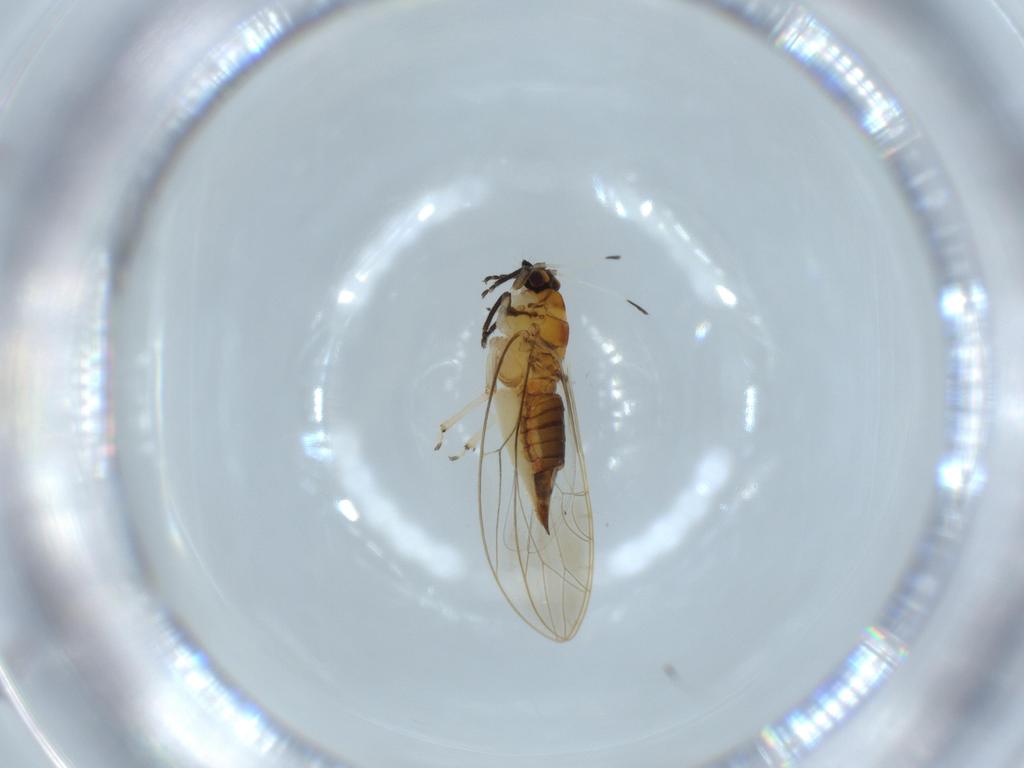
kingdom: Animalia
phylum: Arthropoda
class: Insecta
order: Hemiptera
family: Triozidae
